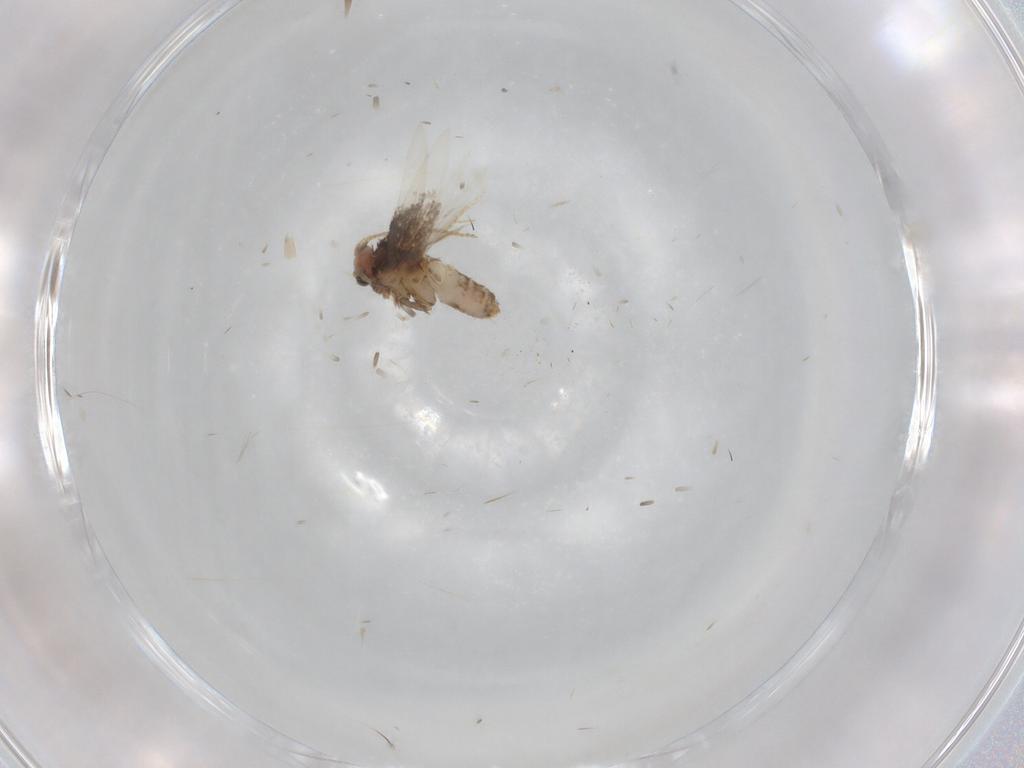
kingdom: Animalia
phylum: Arthropoda
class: Insecta
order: Lepidoptera
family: Nepticulidae
